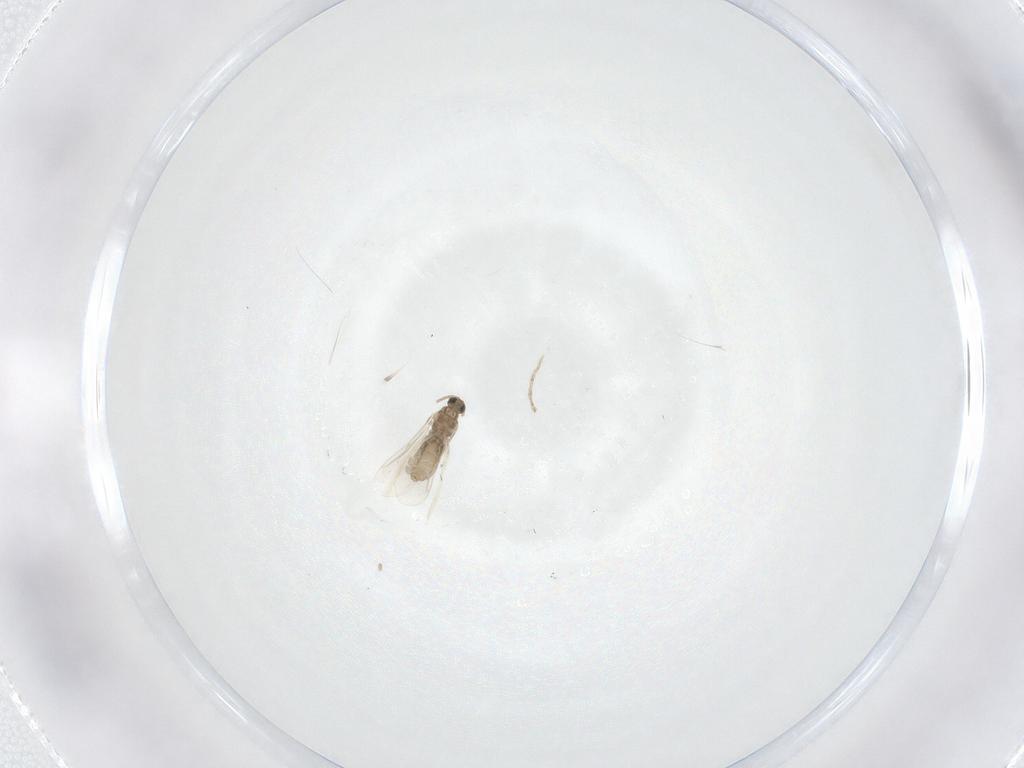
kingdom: Animalia
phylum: Arthropoda
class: Insecta
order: Diptera
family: Cecidomyiidae
